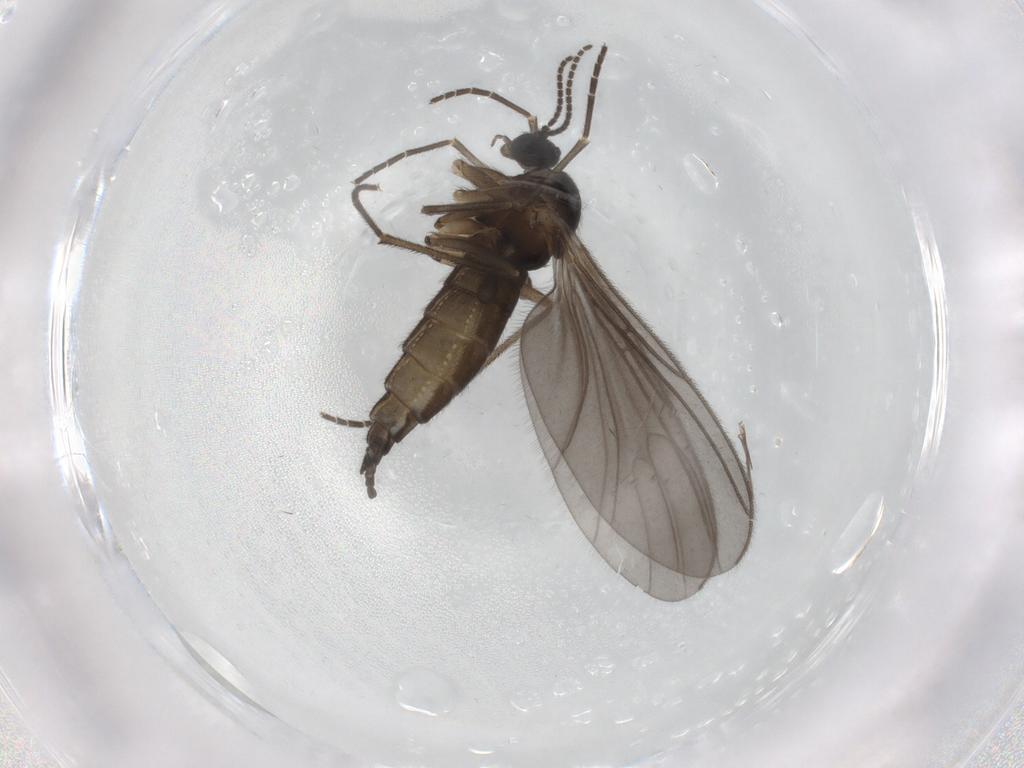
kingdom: Animalia
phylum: Arthropoda
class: Insecta
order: Diptera
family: Sciaridae
